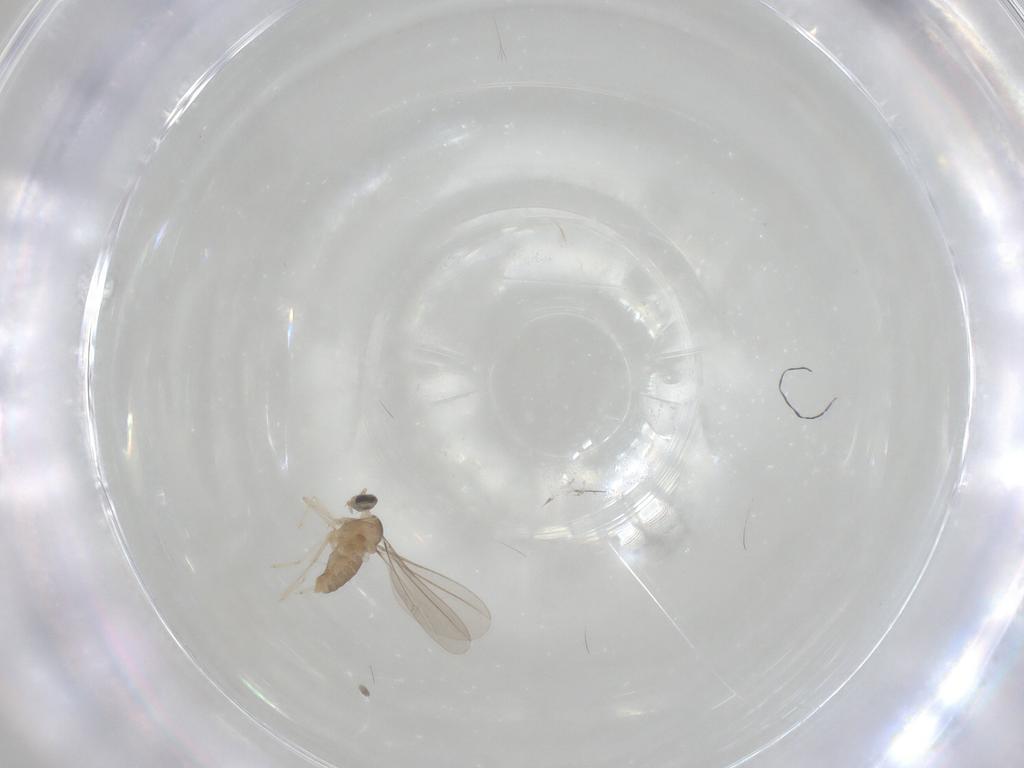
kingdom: Animalia
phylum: Arthropoda
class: Insecta
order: Diptera
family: Cecidomyiidae
